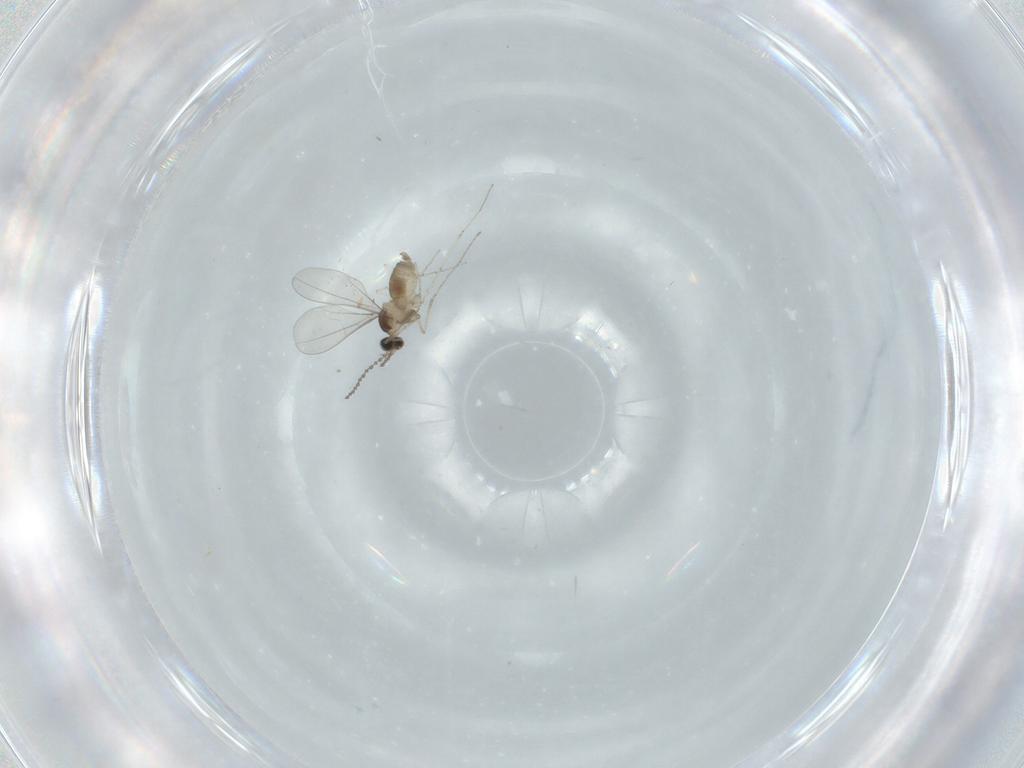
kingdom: Animalia
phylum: Arthropoda
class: Insecta
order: Diptera
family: Cecidomyiidae
